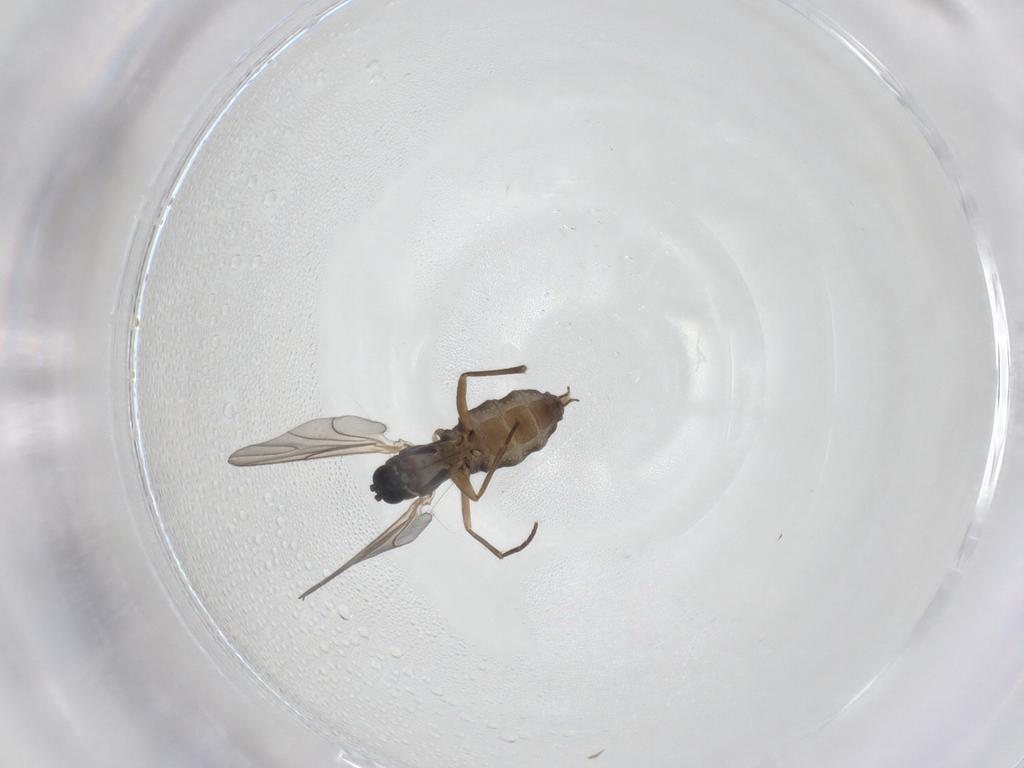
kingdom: Animalia
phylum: Arthropoda
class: Insecta
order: Diptera
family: Sciaridae
